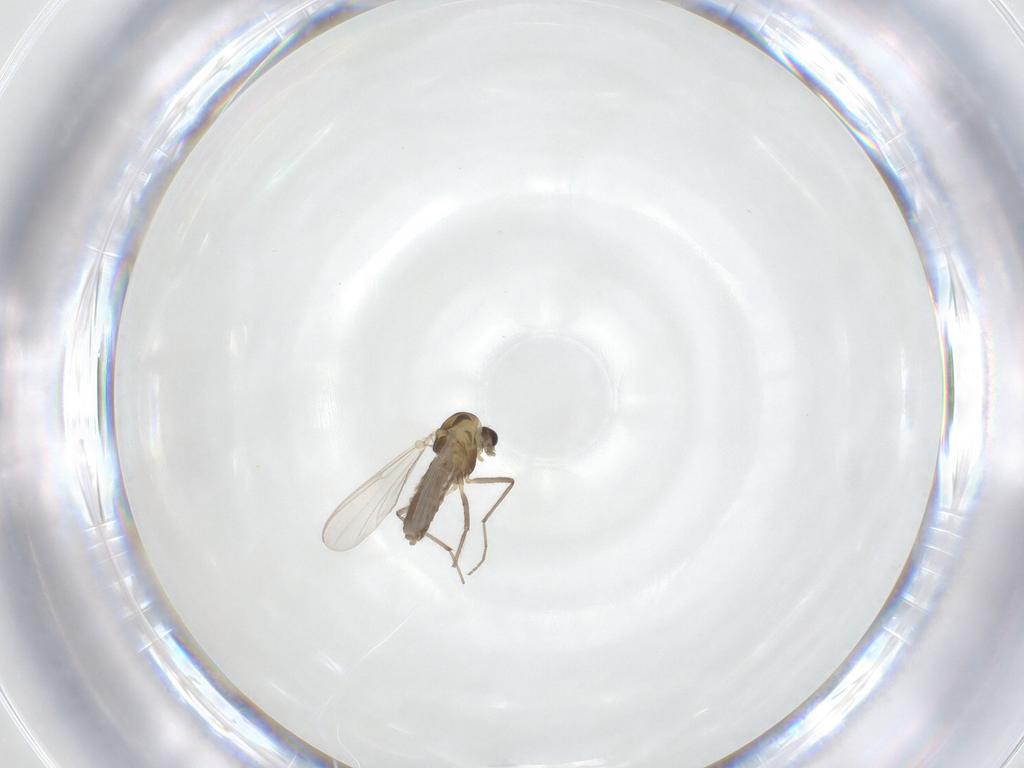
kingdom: Animalia
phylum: Arthropoda
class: Insecta
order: Diptera
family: Chironomidae
